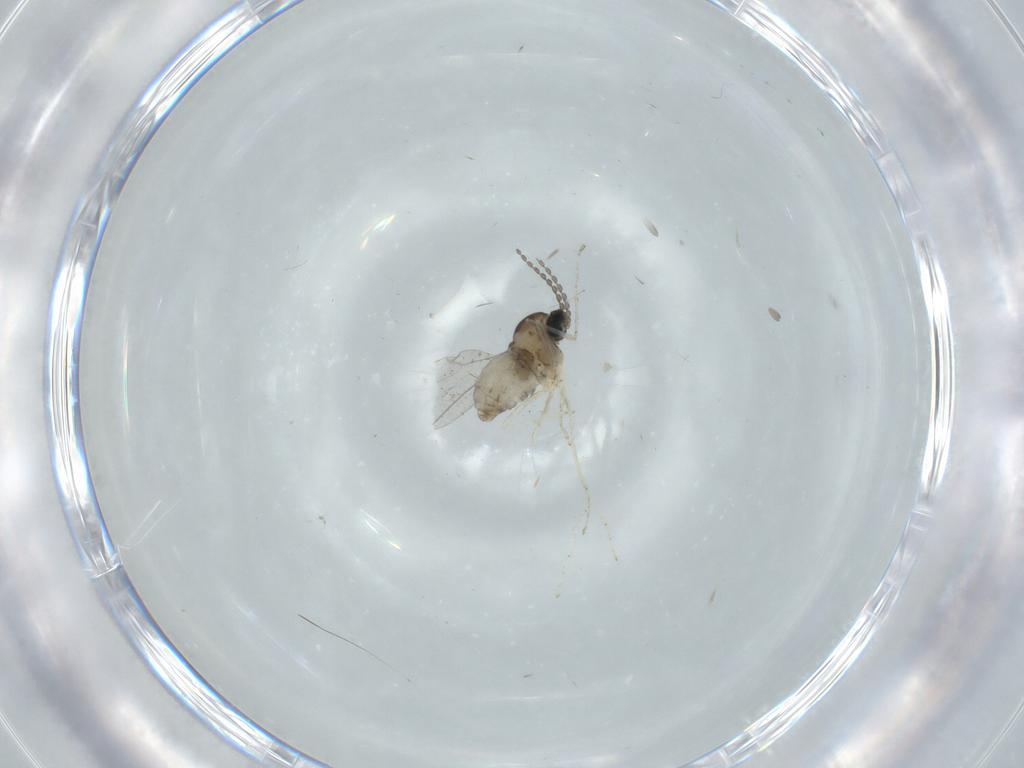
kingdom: Animalia
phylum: Arthropoda
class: Insecta
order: Diptera
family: Cecidomyiidae
